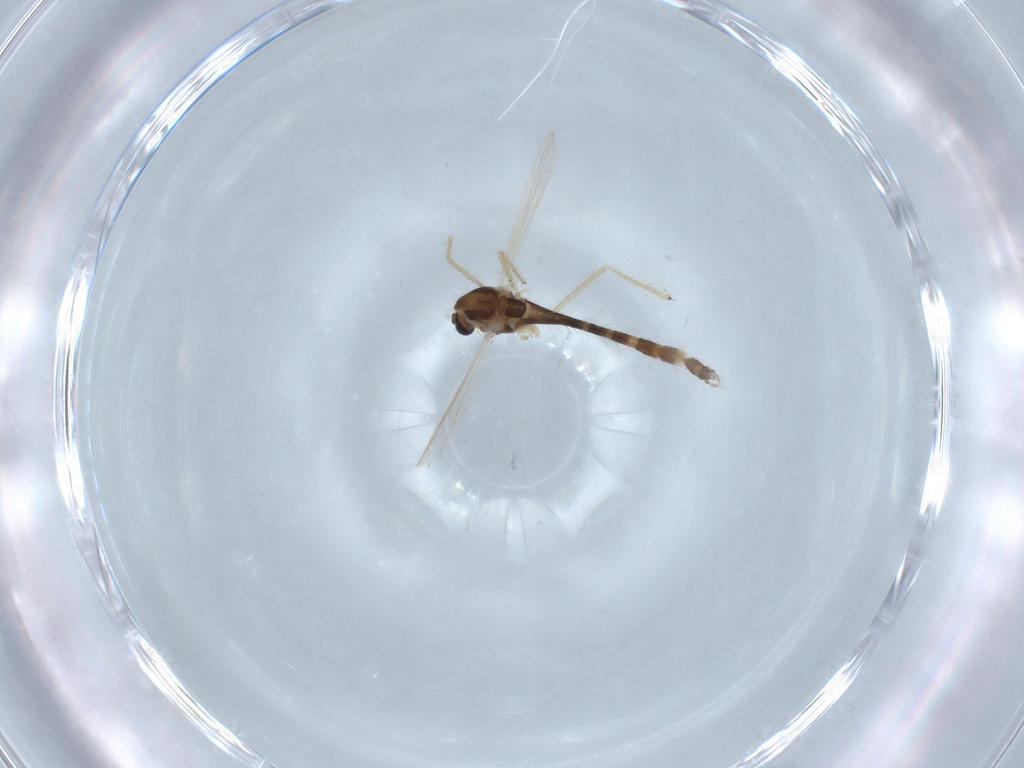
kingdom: Animalia
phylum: Arthropoda
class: Insecta
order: Diptera
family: Chironomidae
